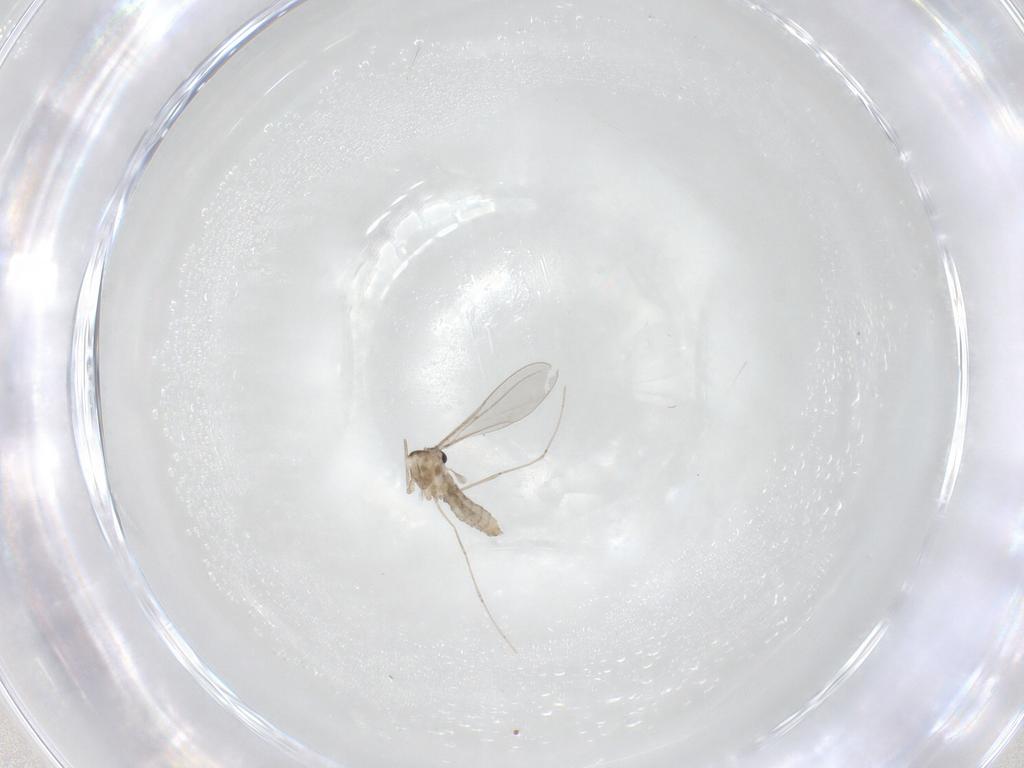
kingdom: Animalia
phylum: Arthropoda
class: Insecta
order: Diptera
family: Cecidomyiidae
